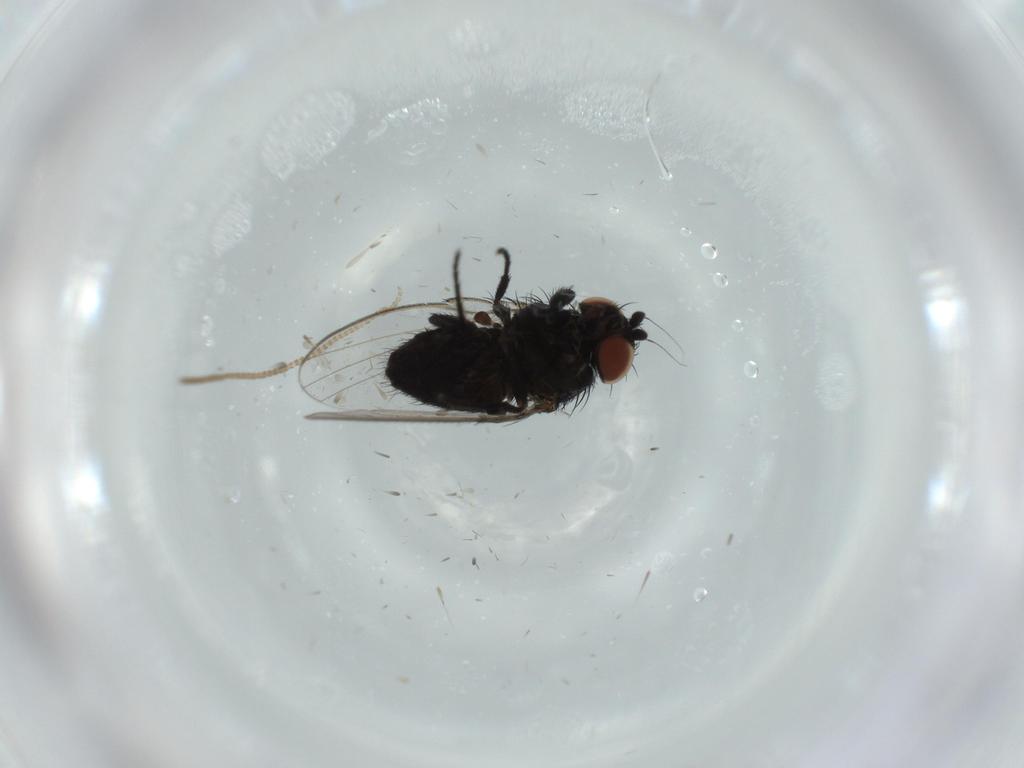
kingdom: Animalia
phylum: Arthropoda
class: Insecta
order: Diptera
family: Milichiidae
